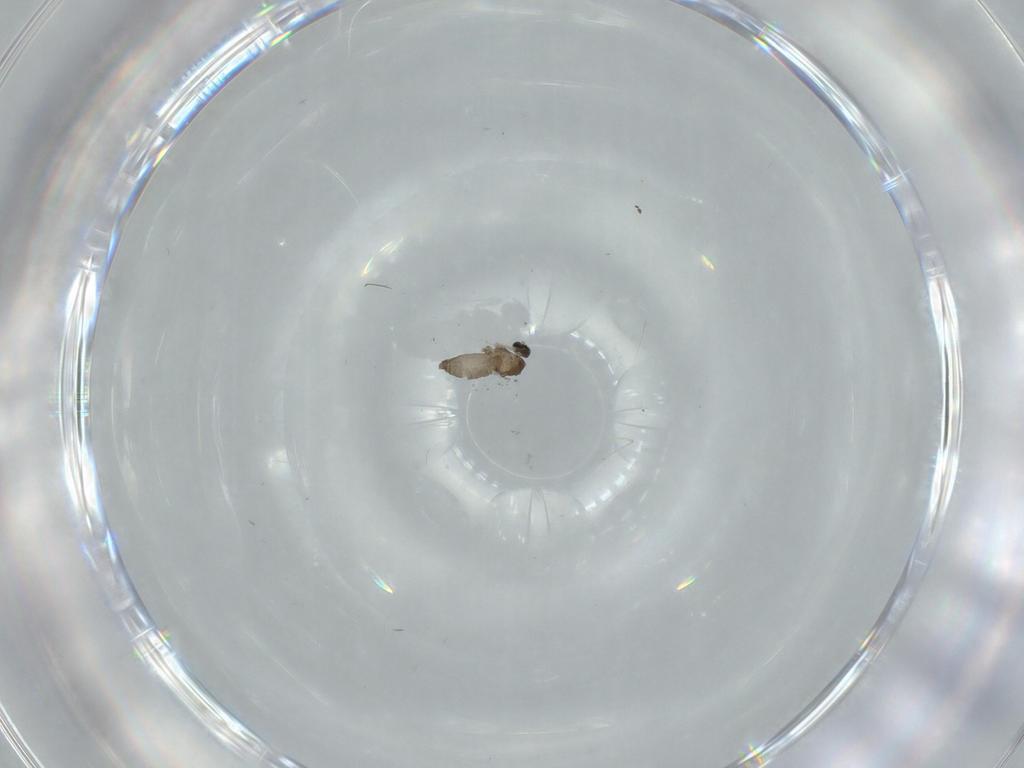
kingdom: Animalia
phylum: Arthropoda
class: Insecta
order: Diptera
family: Cecidomyiidae
